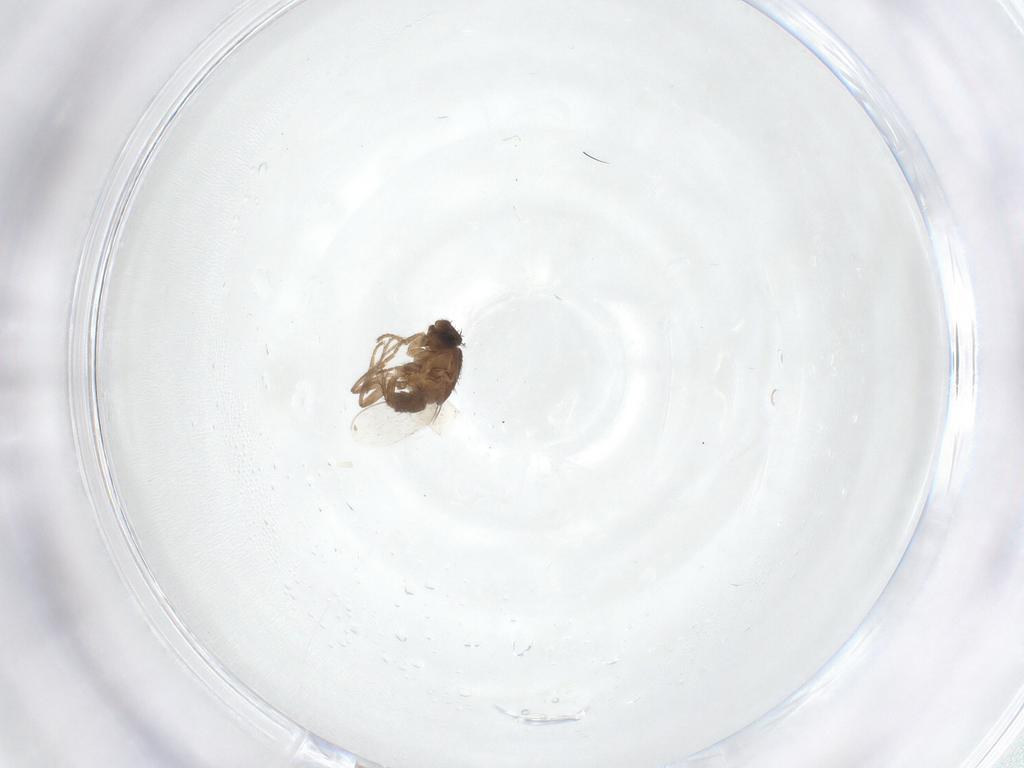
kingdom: Animalia
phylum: Arthropoda
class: Insecta
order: Diptera
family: Sphaeroceridae
